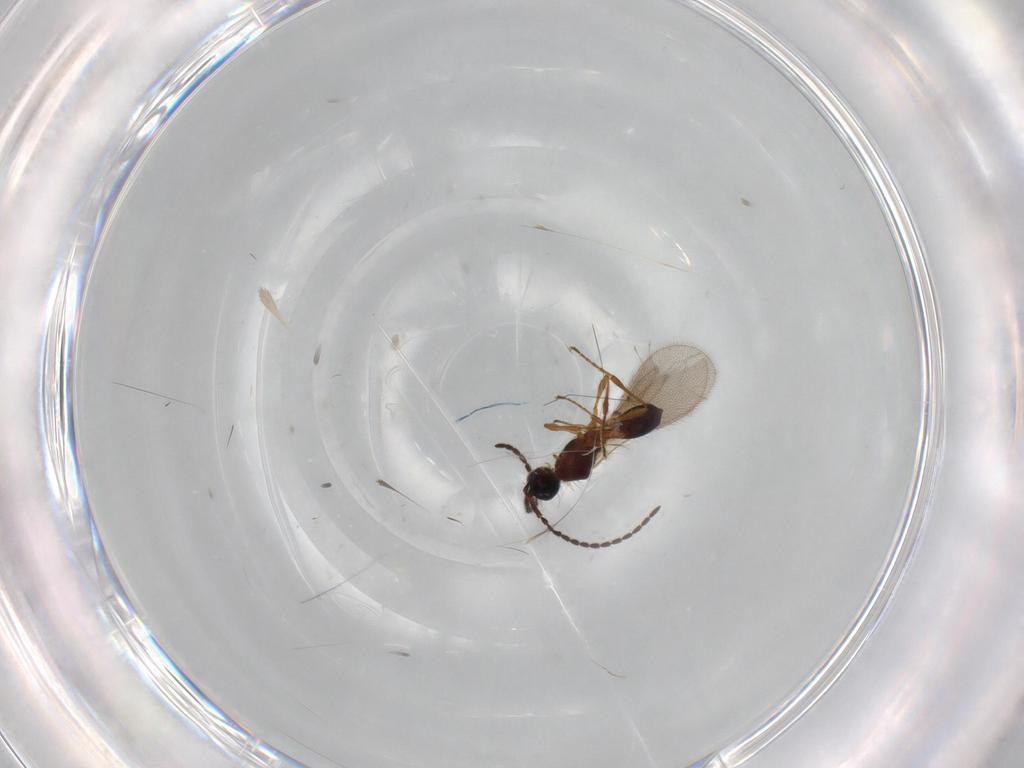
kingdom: Animalia
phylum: Arthropoda
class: Insecta
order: Hymenoptera
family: Diapriidae
